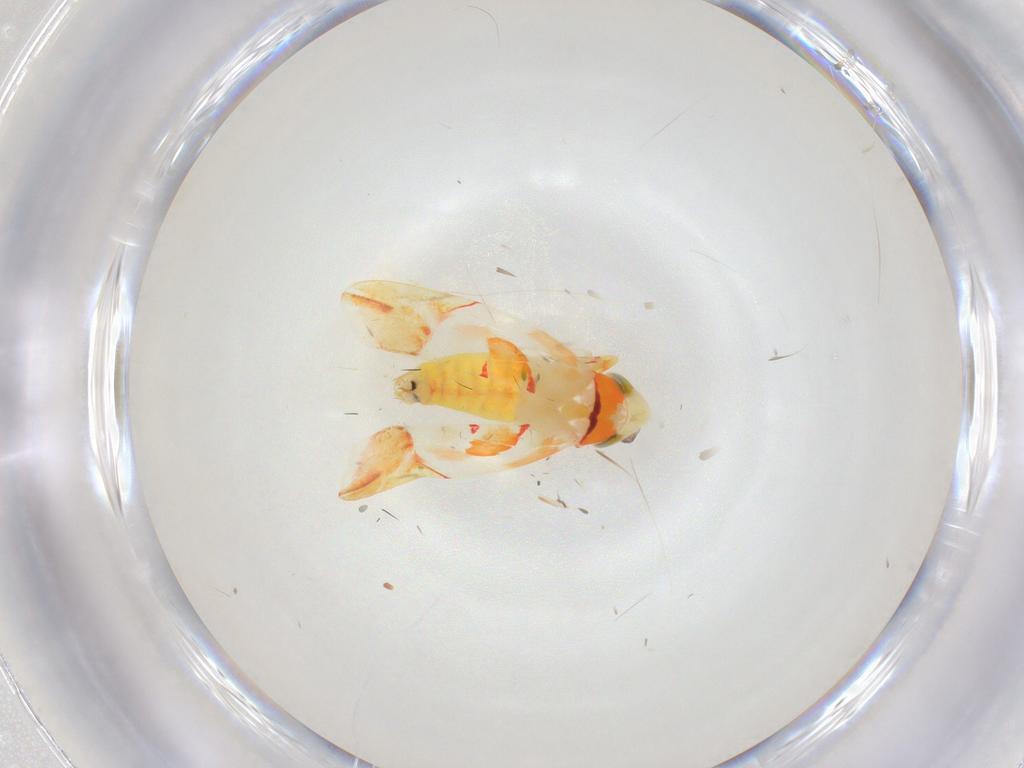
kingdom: Animalia
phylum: Arthropoda
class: Insecta
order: Hemiptera
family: Cicadellidae
